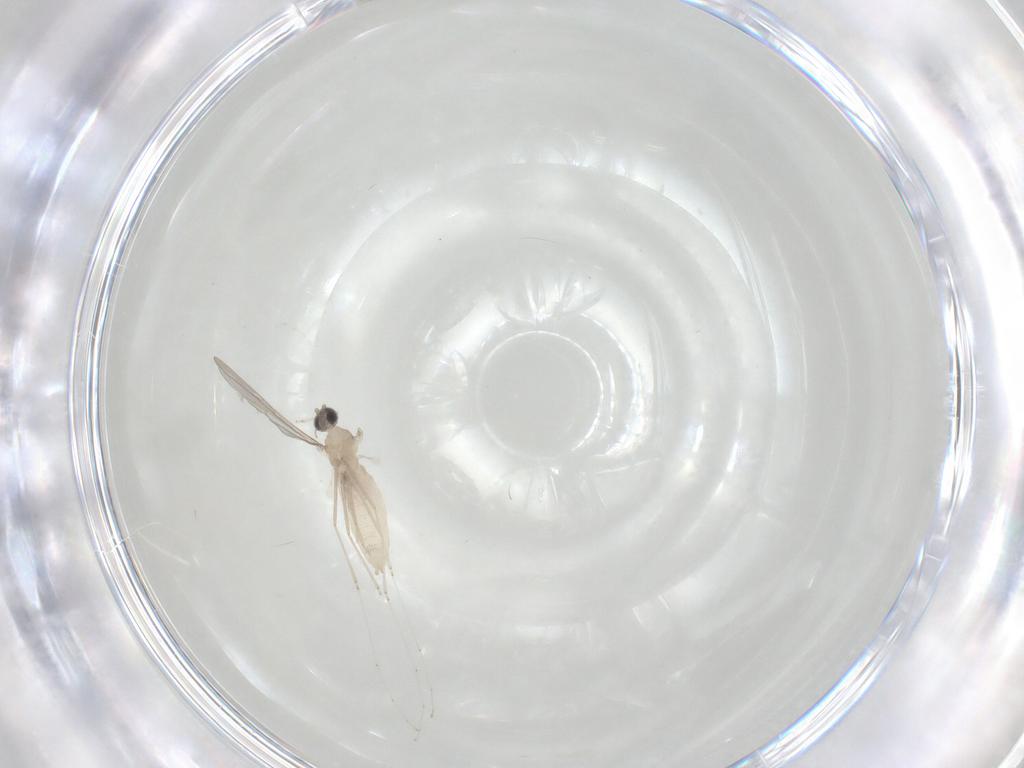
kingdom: Animalia
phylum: Arthropoda
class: Insecta
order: Diptera
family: Cecidomyiidae
